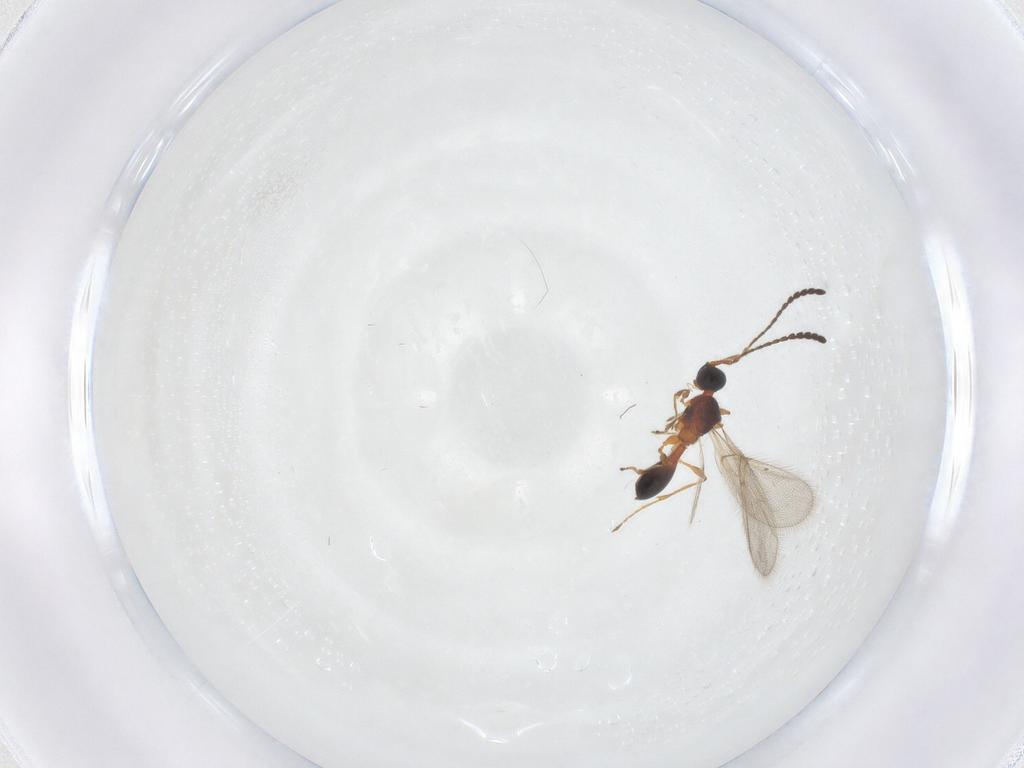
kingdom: Animalia
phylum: Arthropoda
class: Insecta
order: Hymenoptera
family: Diapriidae
